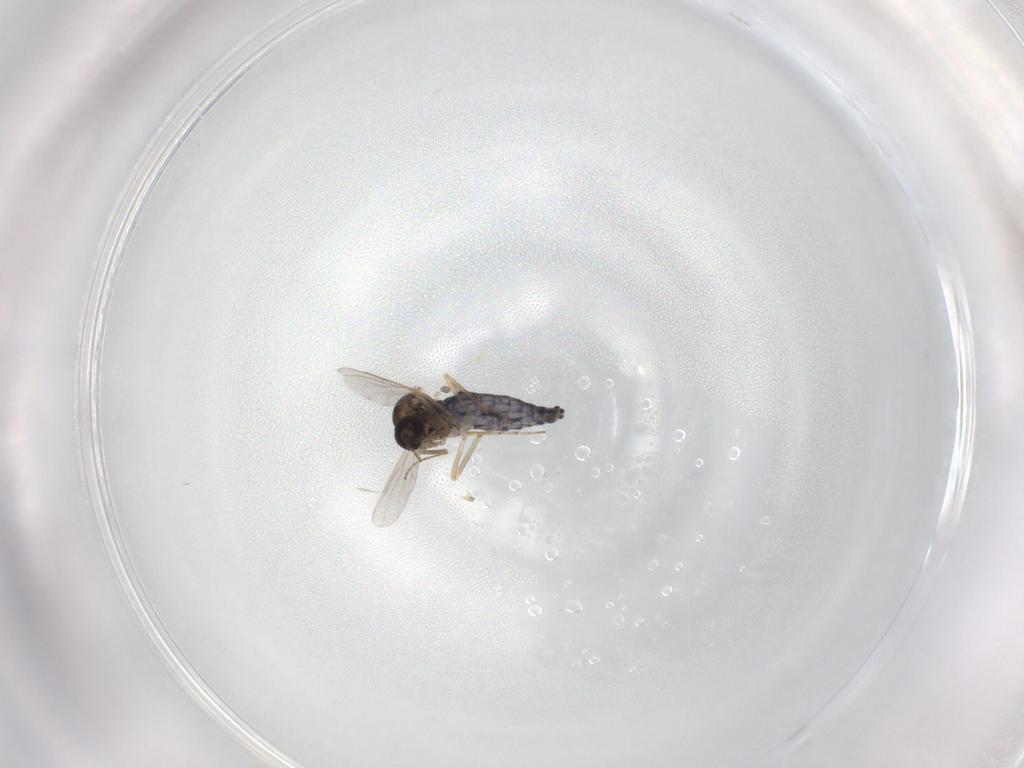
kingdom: Animalia
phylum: Arthropoda
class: Insecta
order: Diptera
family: Ceratopogonidae
